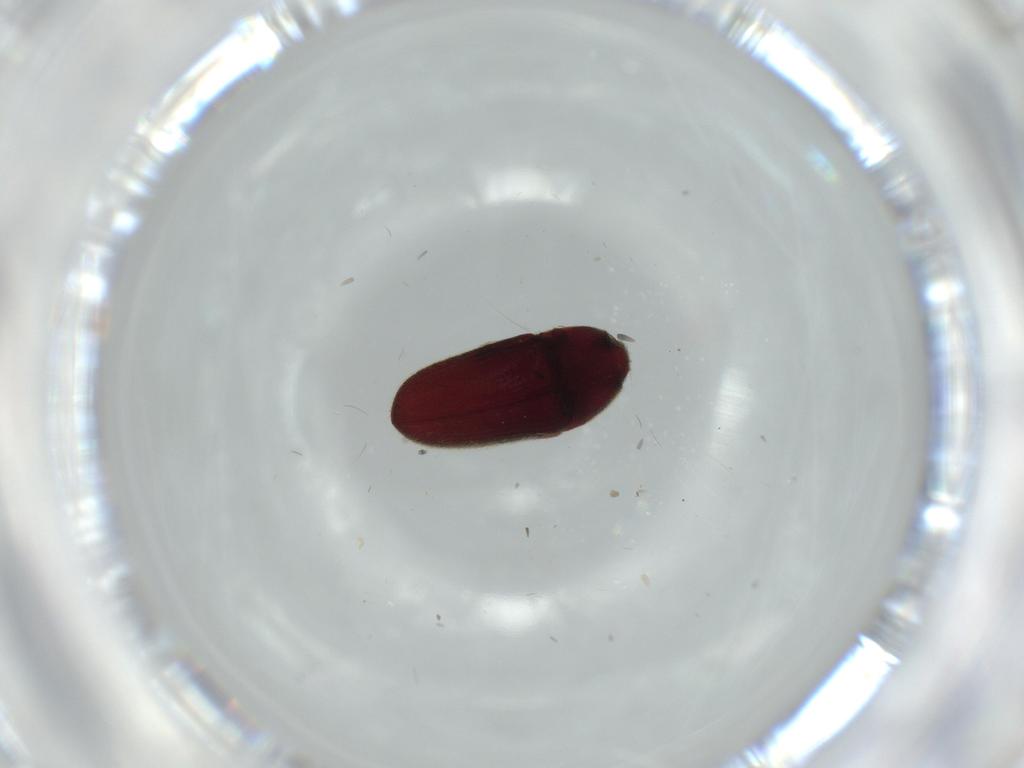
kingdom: Animalia
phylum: Arthropoda
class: Insecta
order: Coleoptera
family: Throscidae
